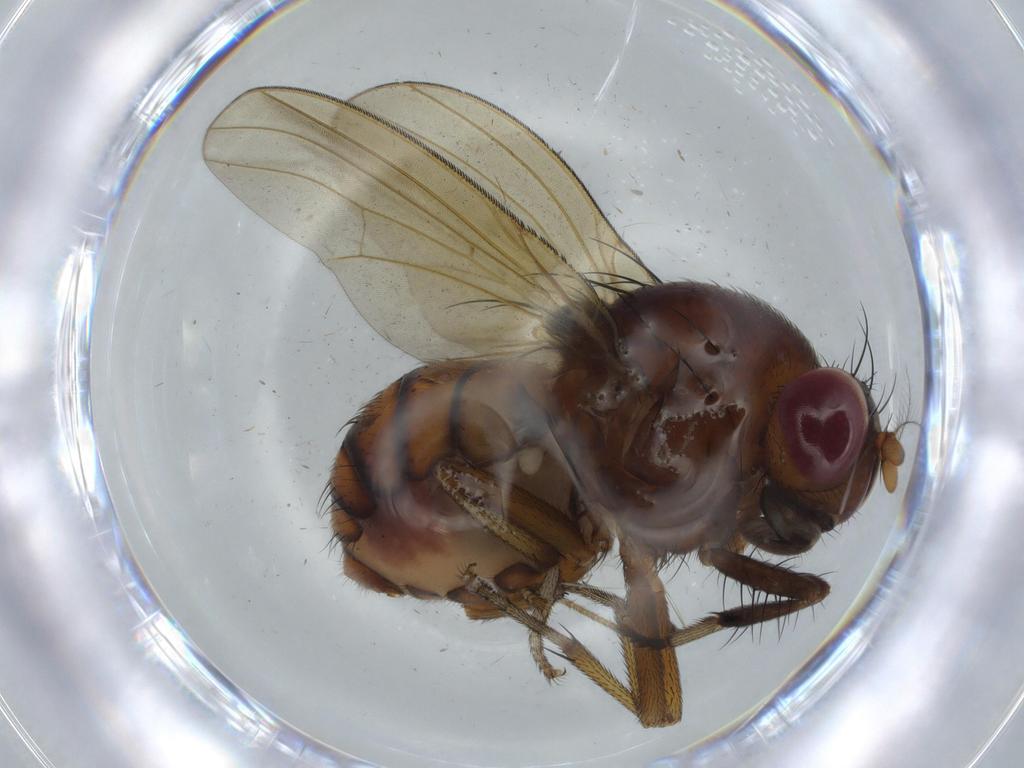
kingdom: Animalia
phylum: Arthropoda
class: Insecta
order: Diptera
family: Cecidomyiidae
